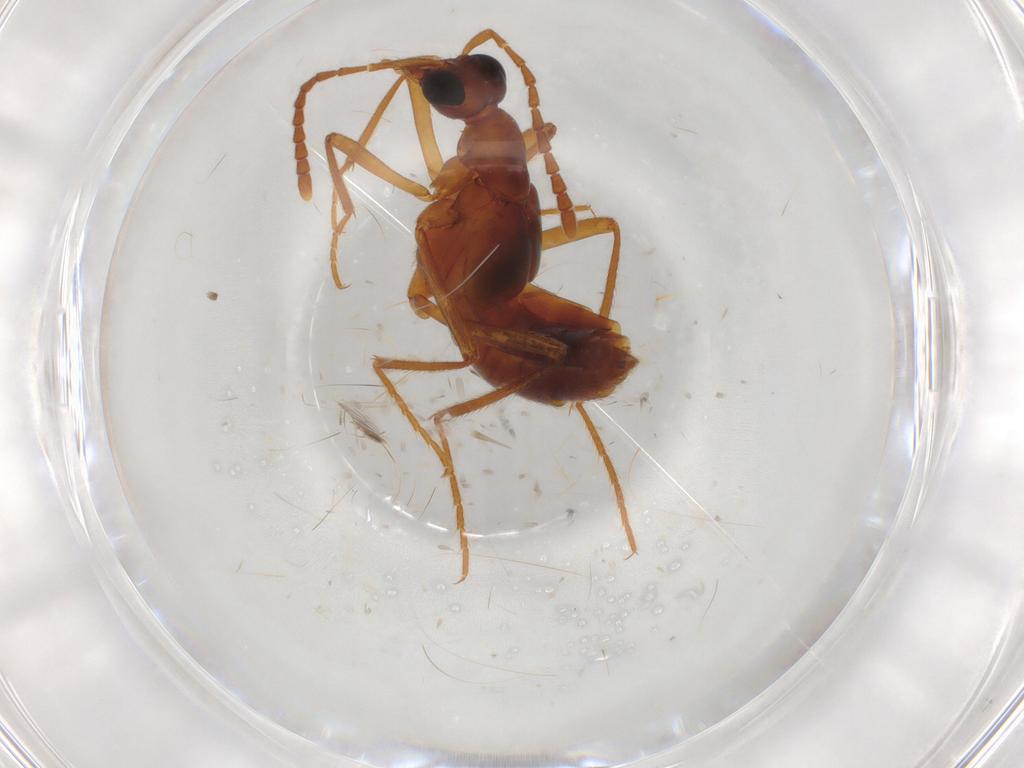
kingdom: Animalia
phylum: Arthropoda
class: Insecta
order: Coleoptera
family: Staphylinidae
